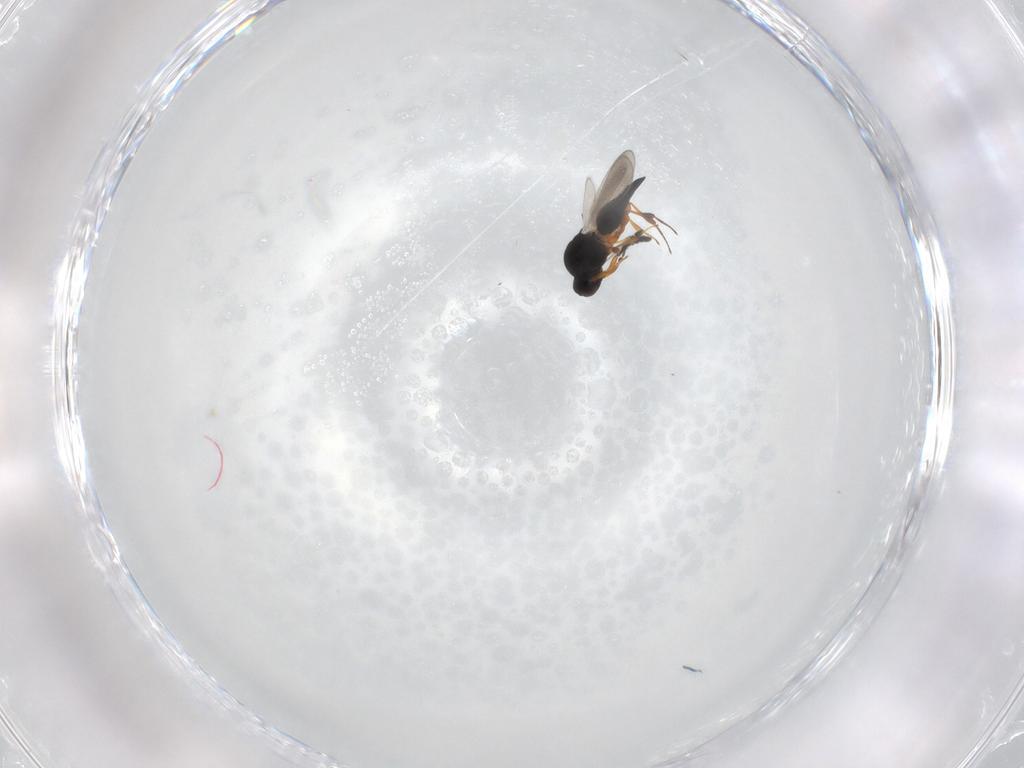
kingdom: Animalia
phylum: Arthropoda
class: Insecta
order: Hymenoptera
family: Platygastridae
